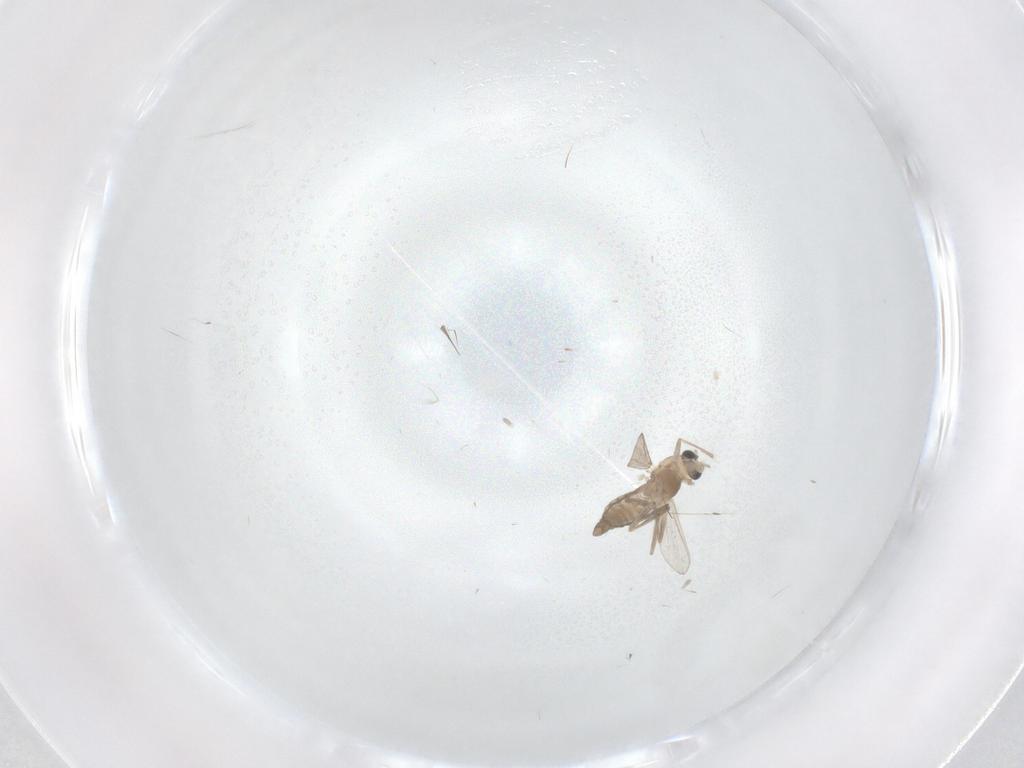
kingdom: Animalia
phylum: Arthropoda
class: Insecta
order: Diptera
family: Chironomidae
